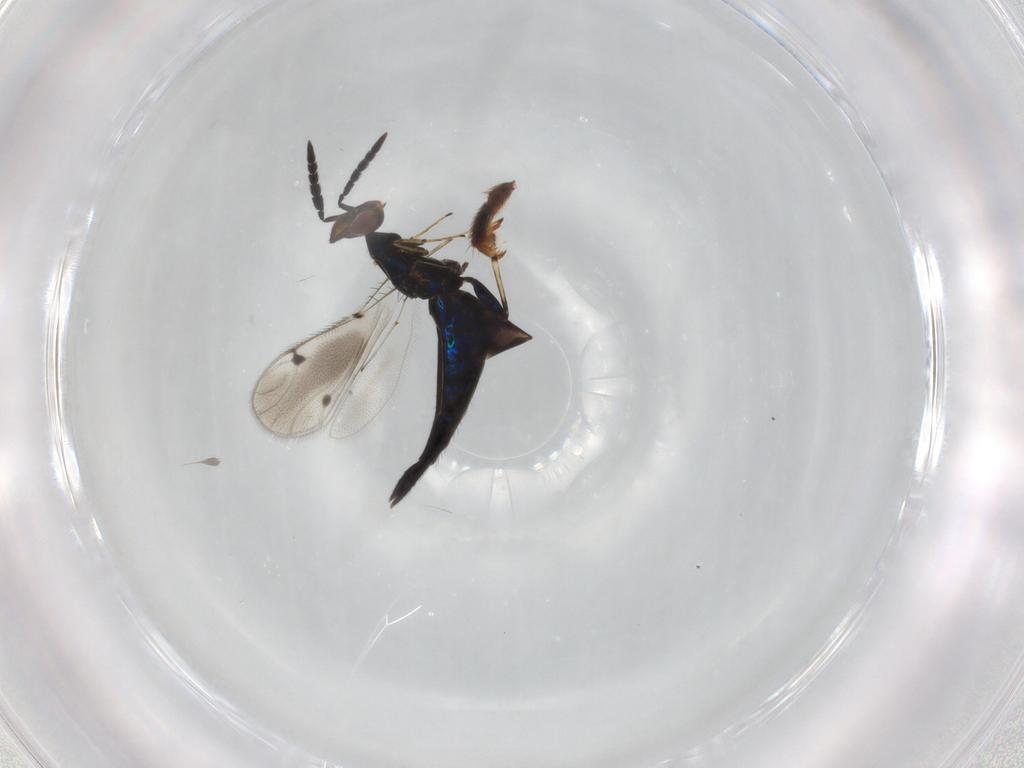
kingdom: Animalia
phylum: Arthropoda
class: Insecta
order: Hymenoptera
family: Eulophidae
